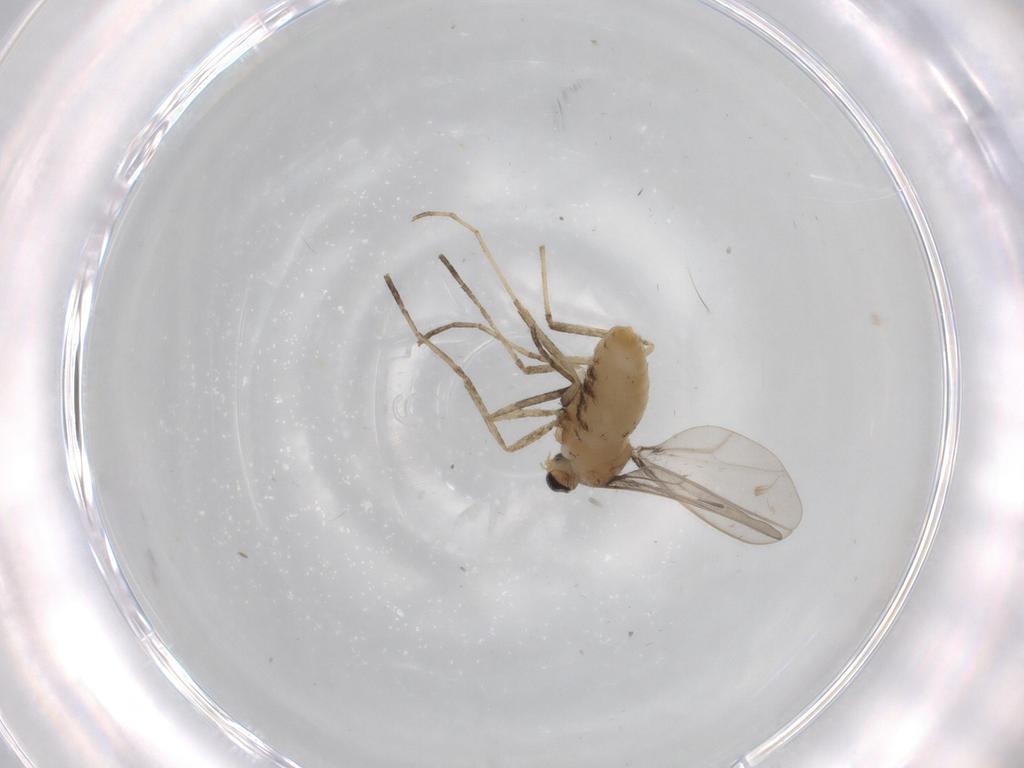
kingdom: Animalia
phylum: Arthropoda
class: Insecta
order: Diptera
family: Cecidomyiidae
